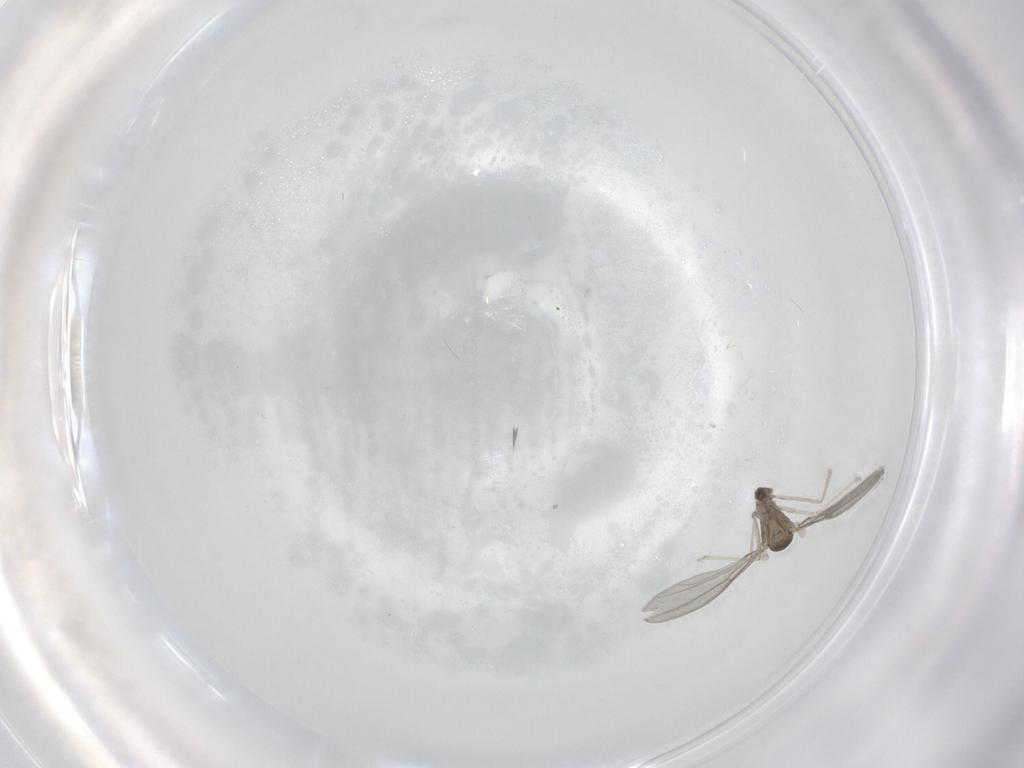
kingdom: Animalia
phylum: Arthropoda
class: Insecta
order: Diptera
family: Cecidomyiidae
